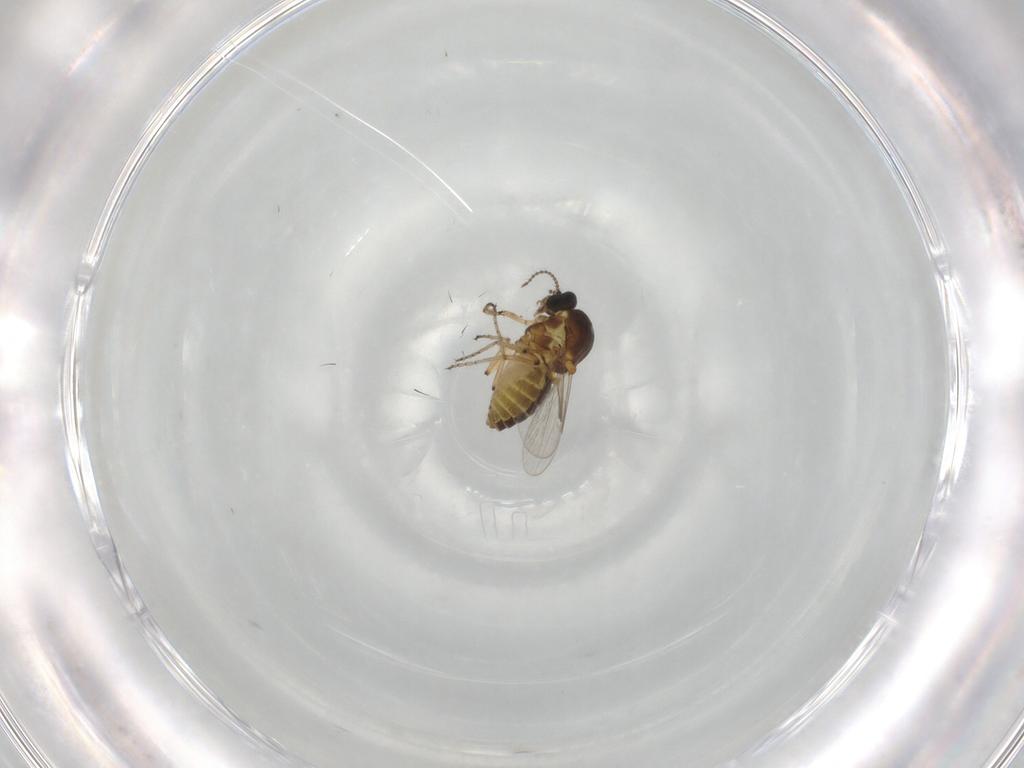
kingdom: Animalia
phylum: Arthropoda
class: Insecta
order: Diptera
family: Ceratopogonidae
